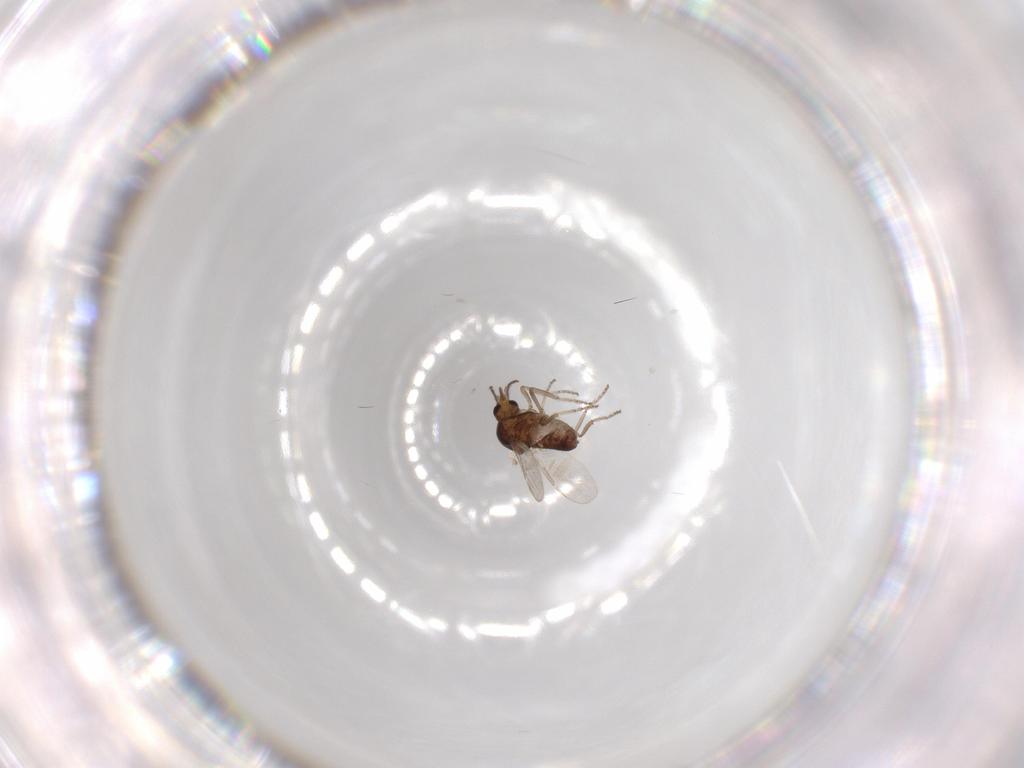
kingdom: Animalia
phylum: Arthropoda
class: Insecta
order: Diptera
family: Ceratopogonidae
